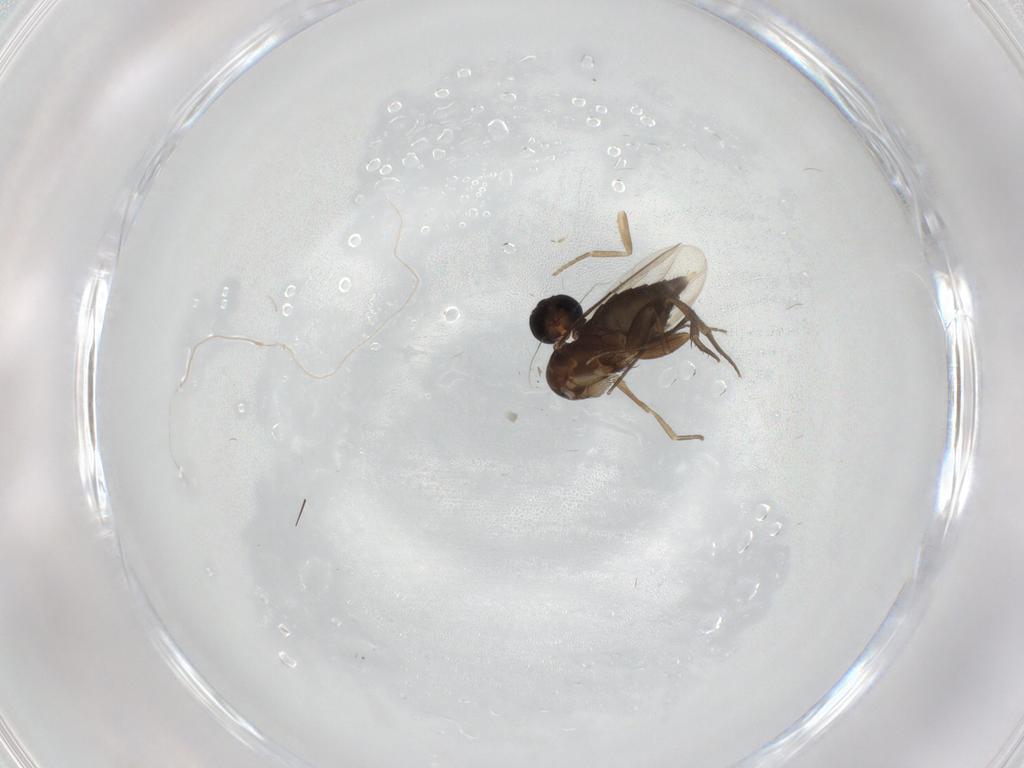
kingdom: Animalia
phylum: Arthropoda
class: Insecta
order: Diptera
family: Phoridae
